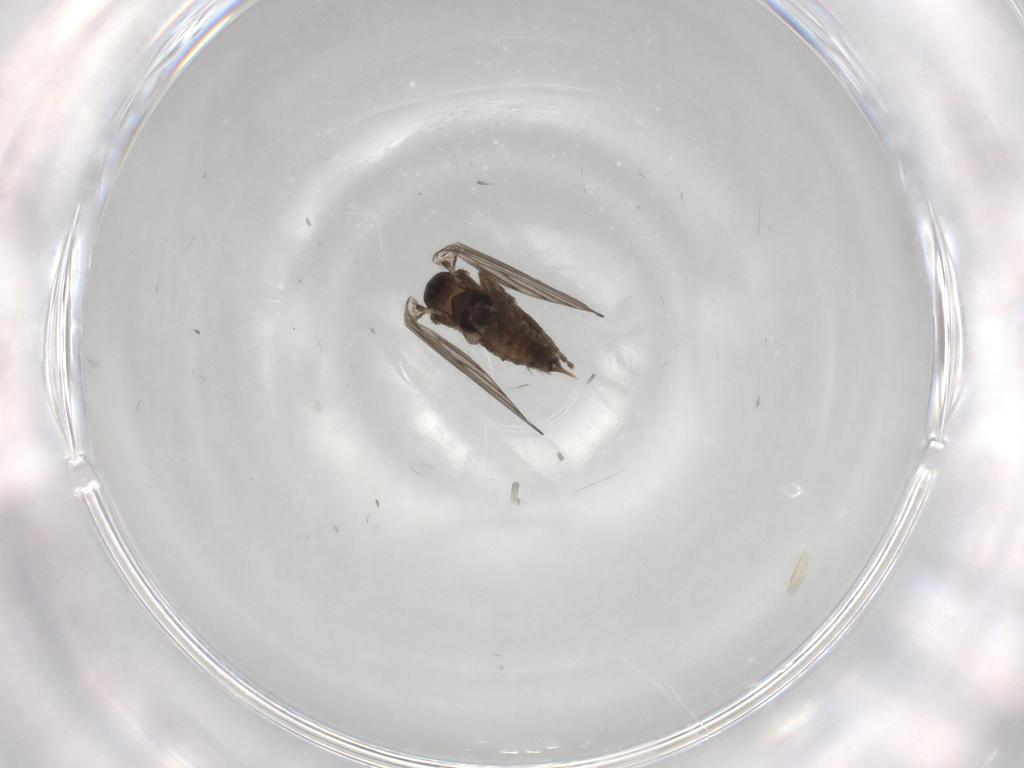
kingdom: Animalia
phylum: Arthropoda
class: Insecta
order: Diptera
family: Psychodidae
